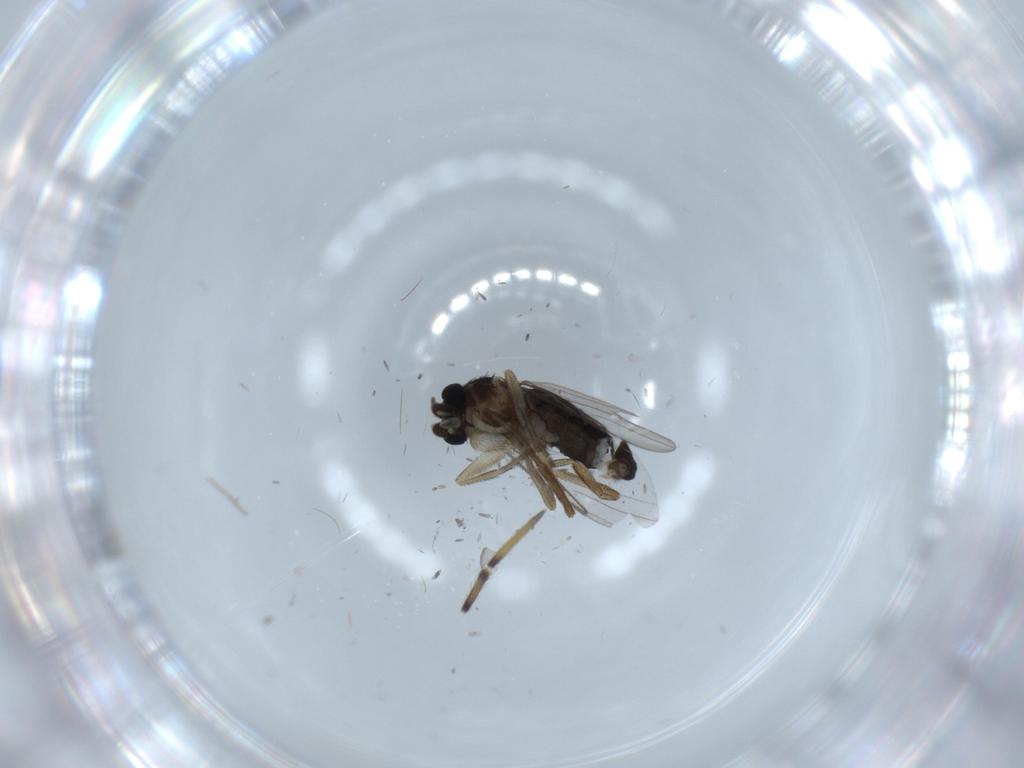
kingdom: Animalia
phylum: Arthropoda
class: Insecta
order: Diptera
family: Phoridae
